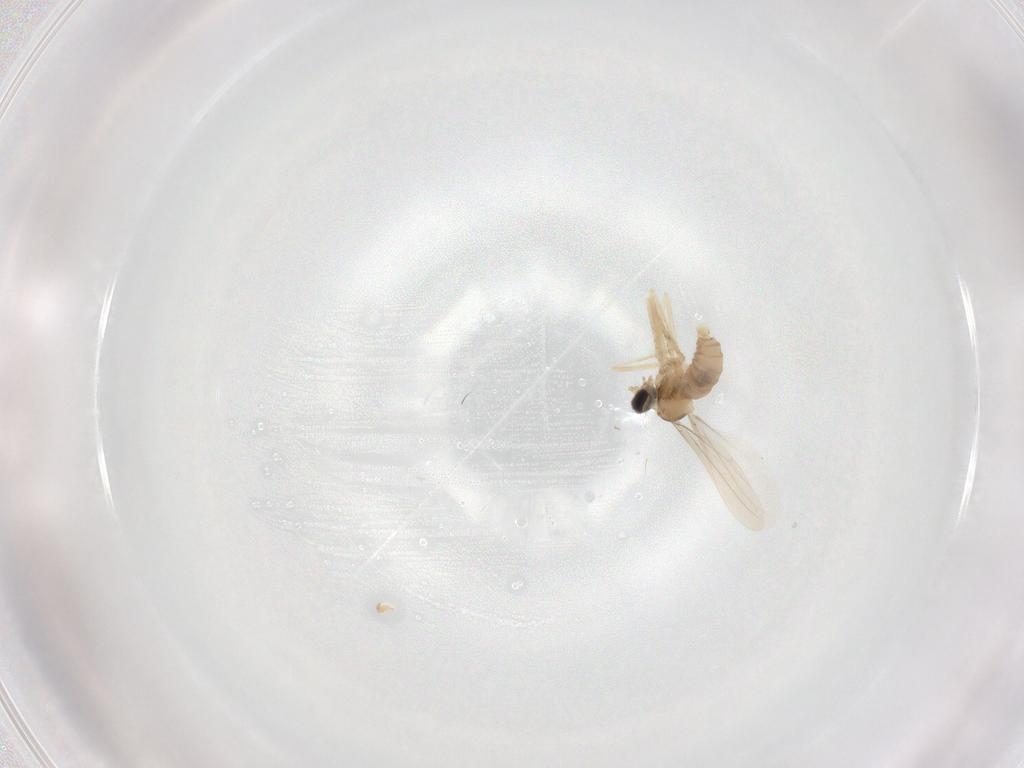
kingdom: Animalia
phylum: Arthropoda
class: Insecta
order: Diptera
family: Cecidomyiidae
